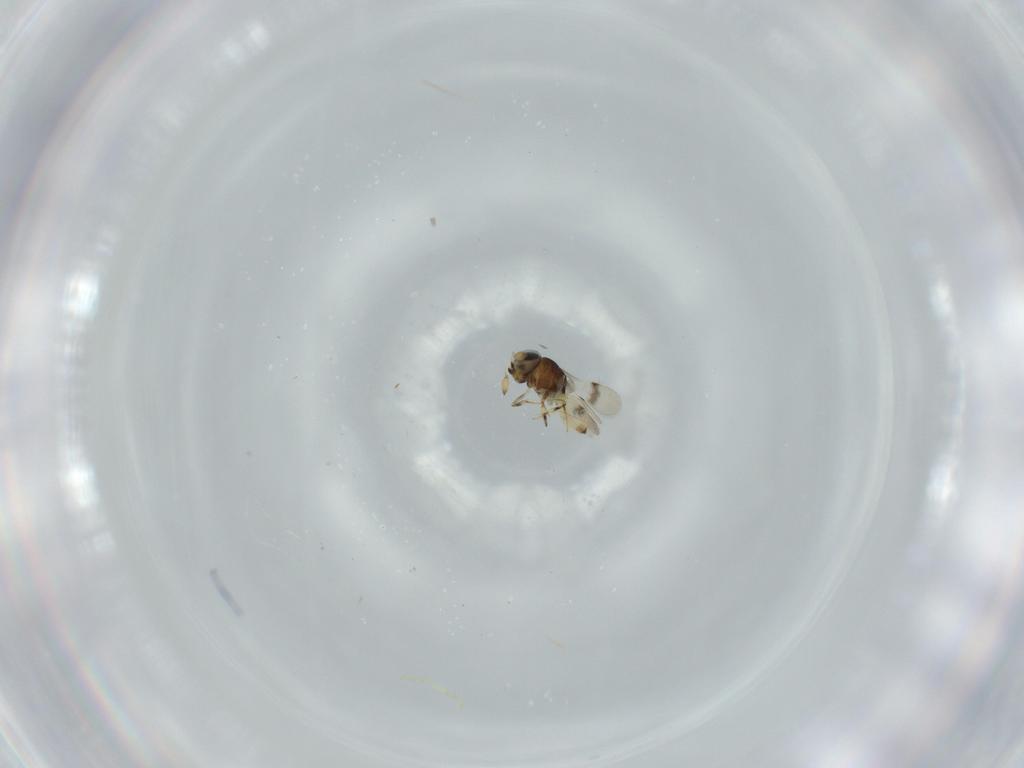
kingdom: Animalia
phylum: Arthropoda
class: Insecta
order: Hymenoptera
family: Scelionidae
